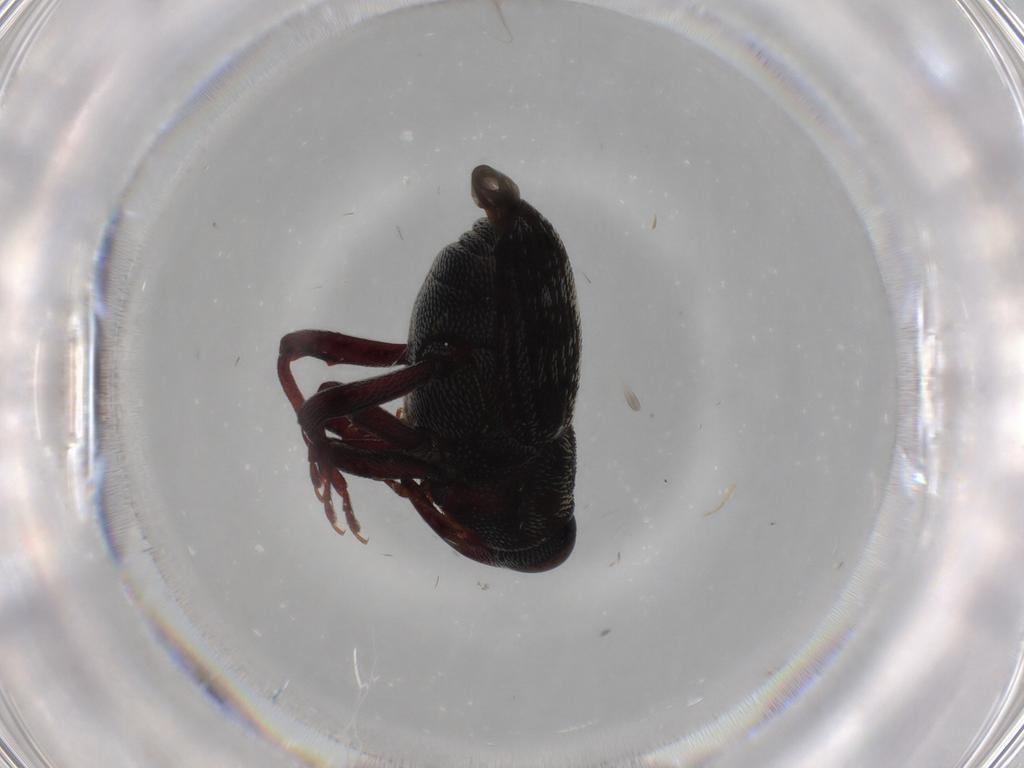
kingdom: Animalia
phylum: Arthropoda
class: Insecta
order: Coleoptera
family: Curculionidae
